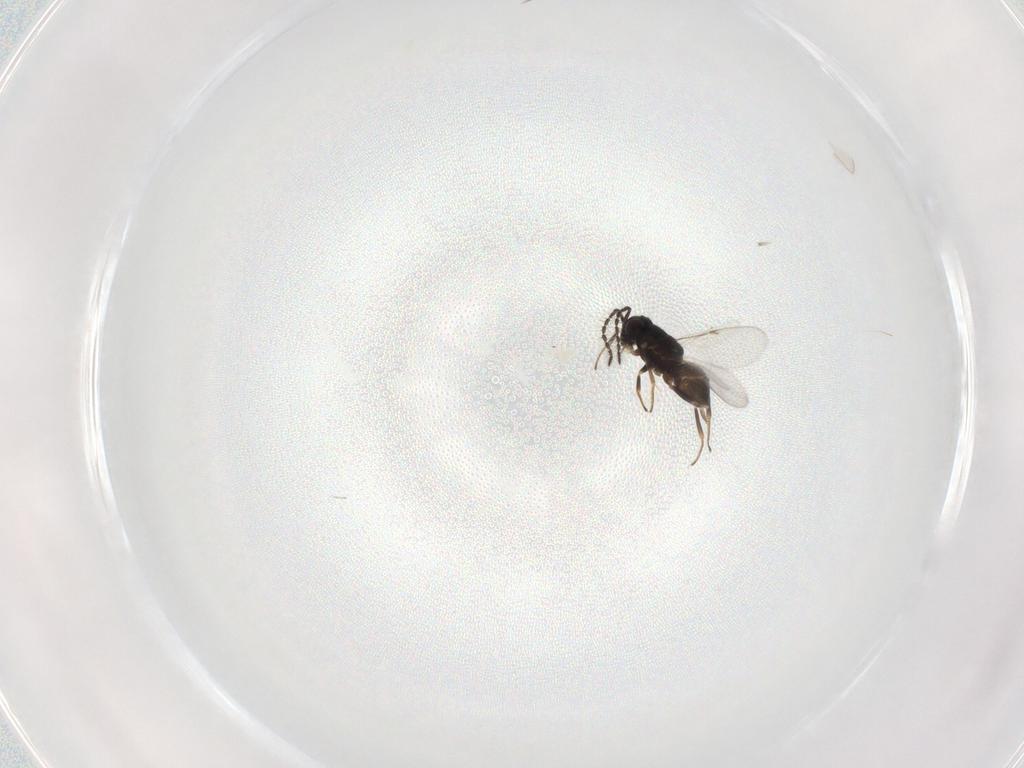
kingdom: Animalia
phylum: Arthropoda
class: Insecta
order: Hymenoptera
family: Encyrtidae
